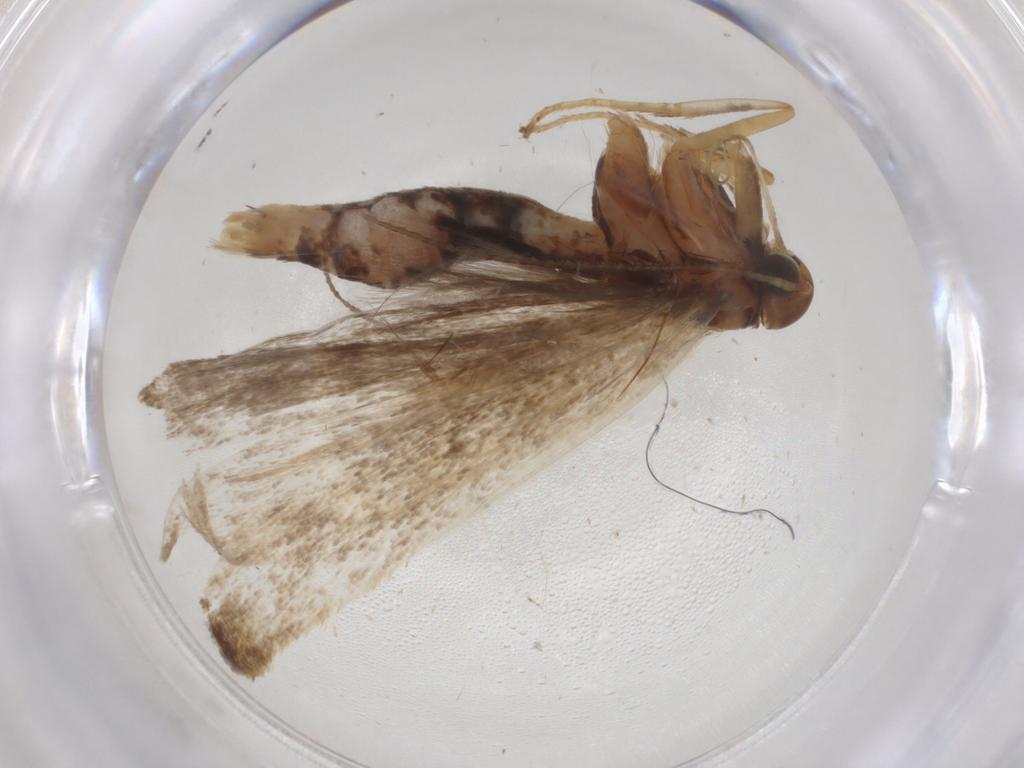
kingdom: Animalia
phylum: Arthropoda
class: Insecta
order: Lepidoptera
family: Gelechiidae
